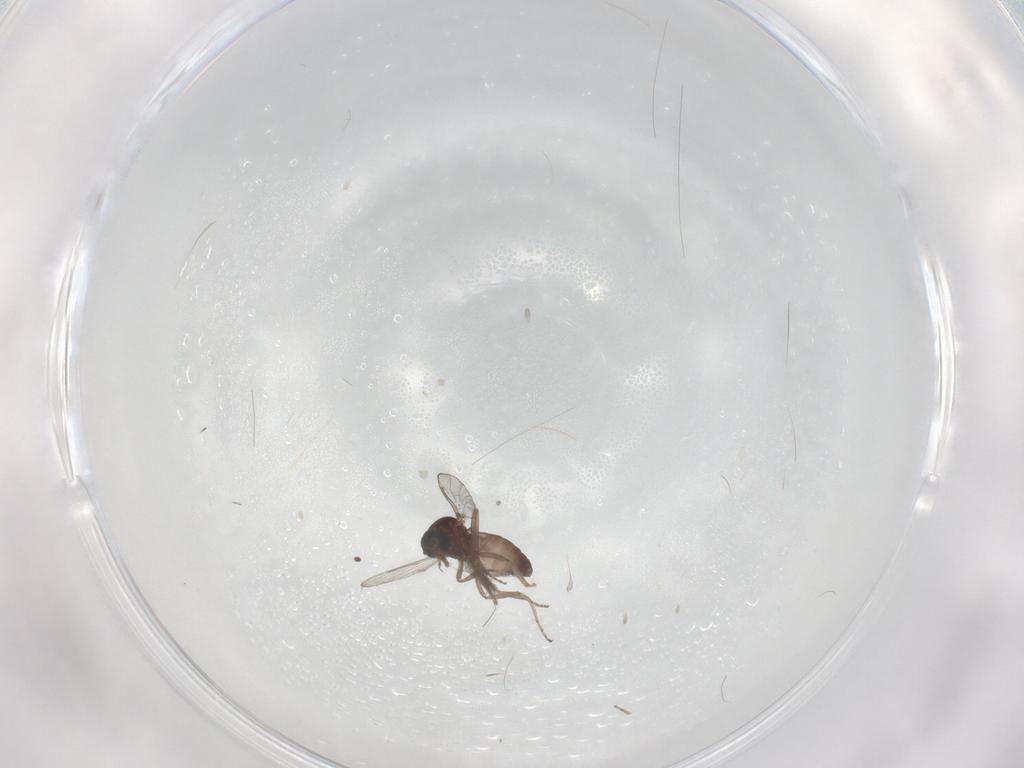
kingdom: Animalia
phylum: Arthropoda
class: Insecta
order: Diptera
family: Ceratopogonidae
